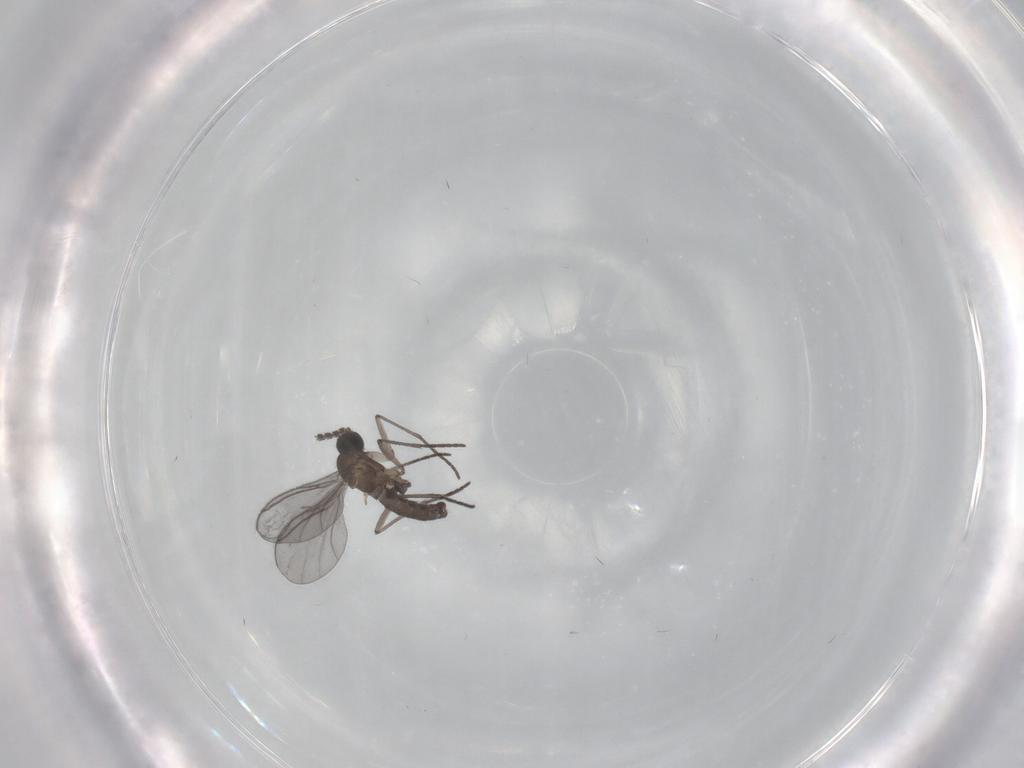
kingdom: Animalia
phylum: Arthropoda
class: Insecta
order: Diptera
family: Sciaridae
